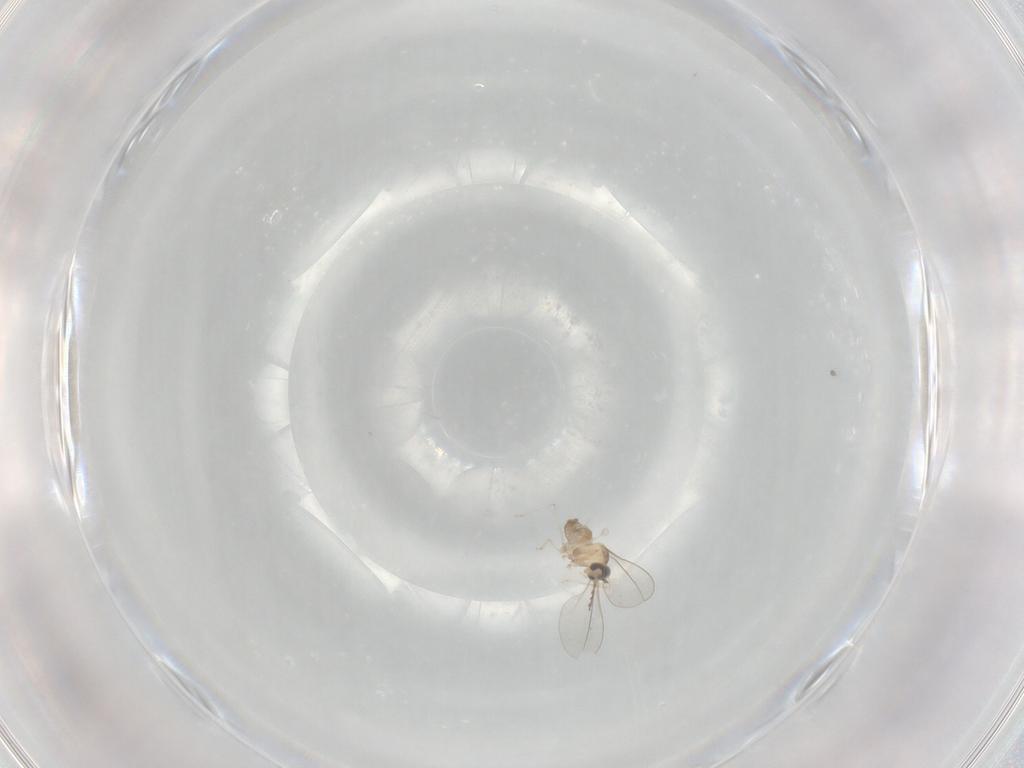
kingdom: Animalia
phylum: Arthropoda
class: Insecta
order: Diptera
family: Cecidomyiidae
